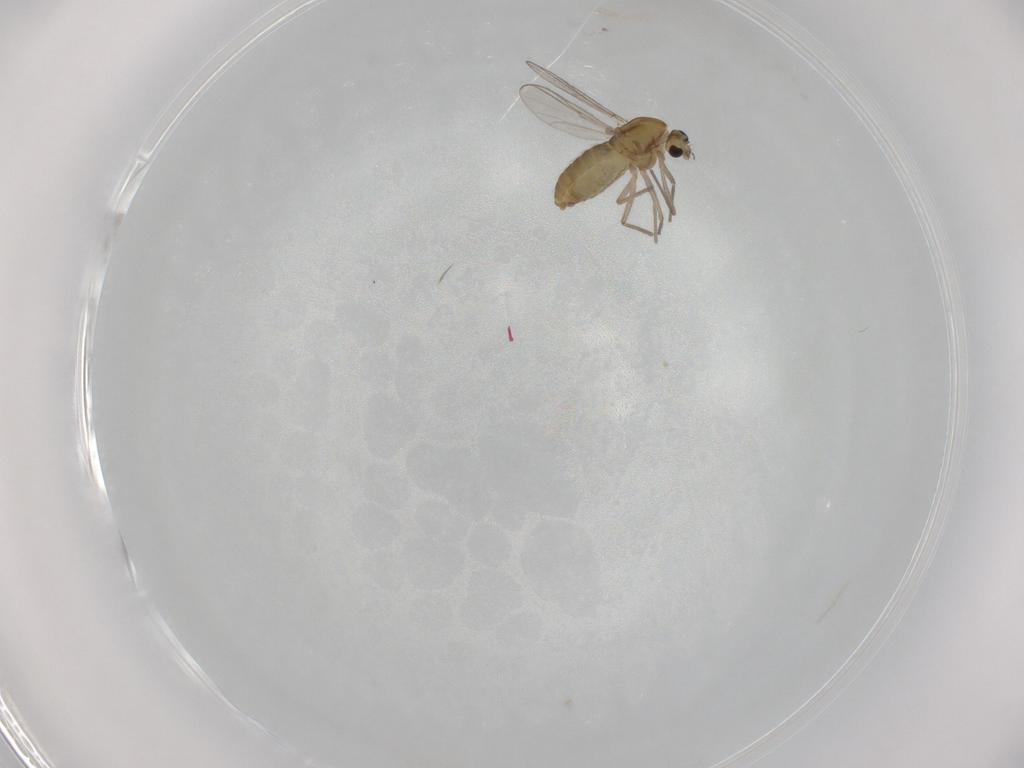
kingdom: Animalia
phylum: Arthropoda
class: Insecta
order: Diptera
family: Chironomidae
